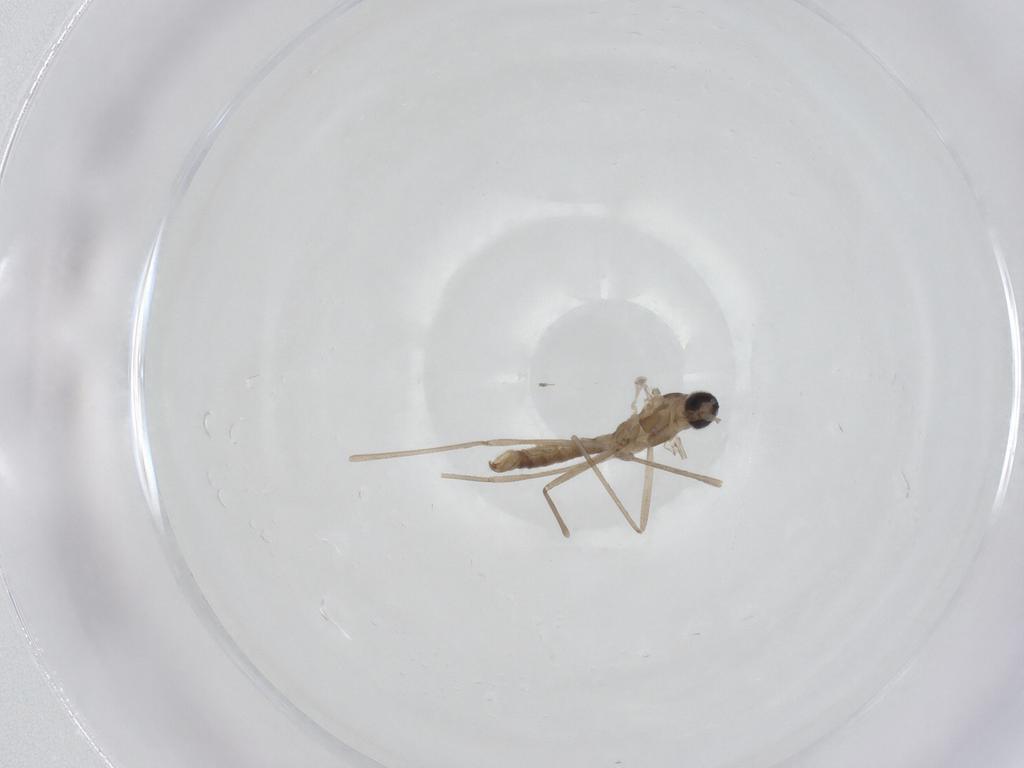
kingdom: Animalia
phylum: Arthropoda
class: Insecta
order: Diptera
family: Cecidomyiidae
